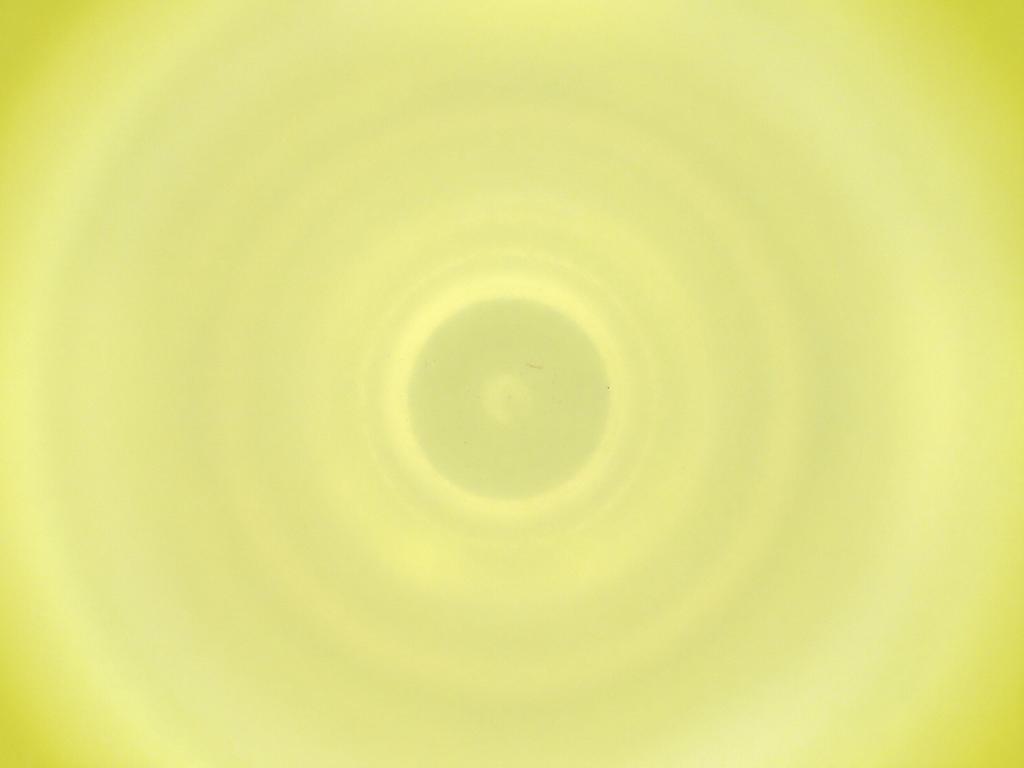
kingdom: Animalia
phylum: Arthropoda
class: Insecta
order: Diptera
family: Cecidomyiidae
